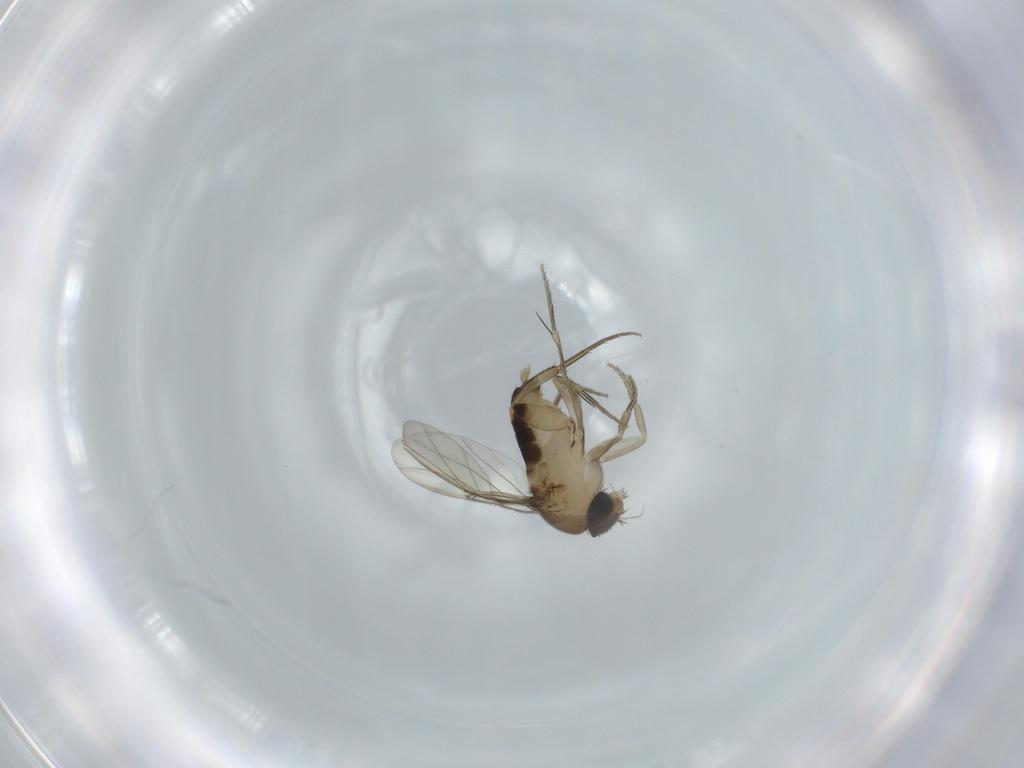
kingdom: Animalia
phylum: Arthropoda
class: Insecta
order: Diptera
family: Phoridae
